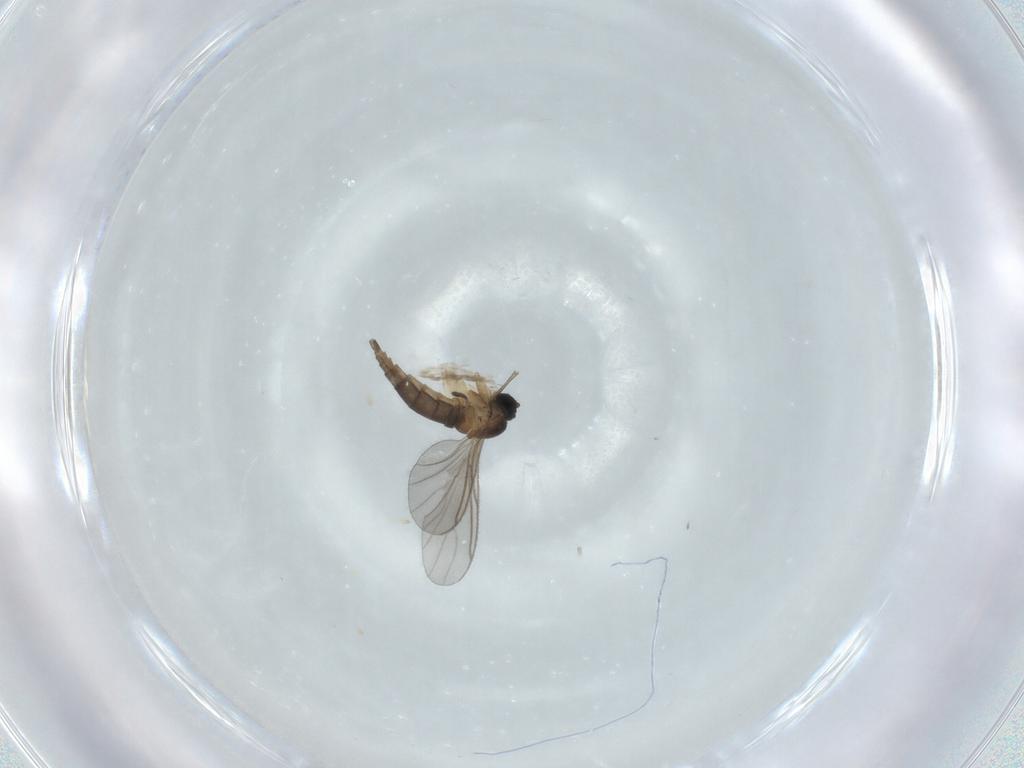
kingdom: Animalia
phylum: Arthropoda
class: Insecta
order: Diptera
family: Sciaridae
